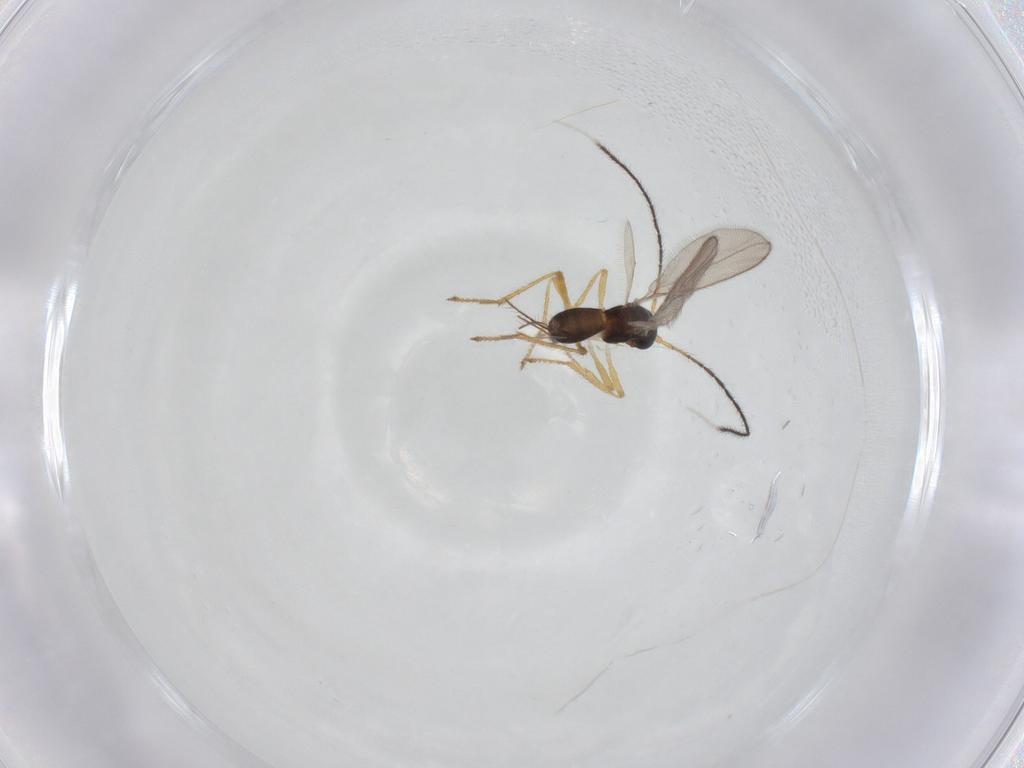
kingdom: Animalia
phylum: Arthropoda
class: Insecta
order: Hymenoptera
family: Braconidae
